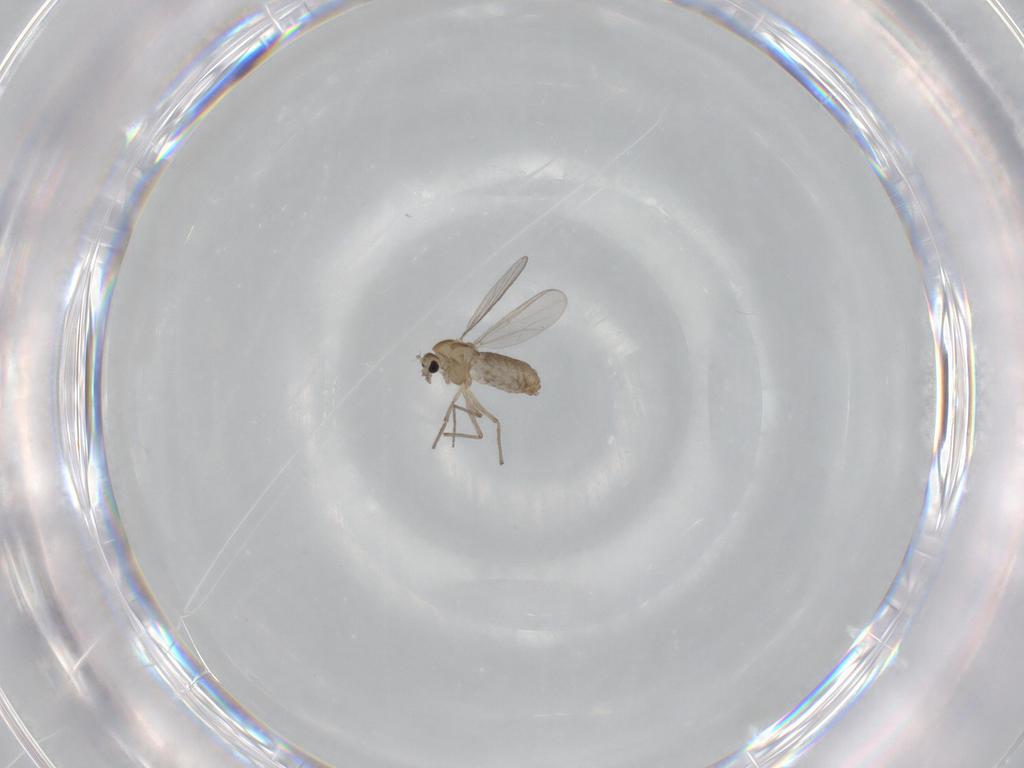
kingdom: Animalia
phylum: Arthropoda
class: Insecta
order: Diptera
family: Chironomidae
